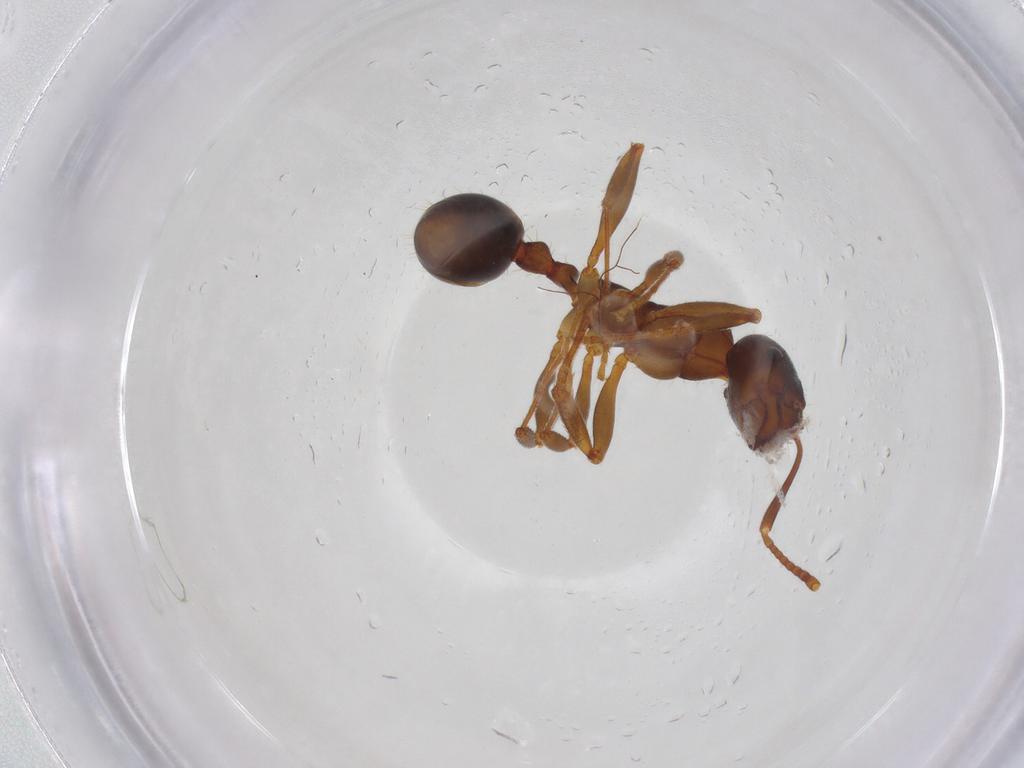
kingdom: Animalia
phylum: Arthropoda
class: Insecta
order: Hymenoptera
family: Formicidae
